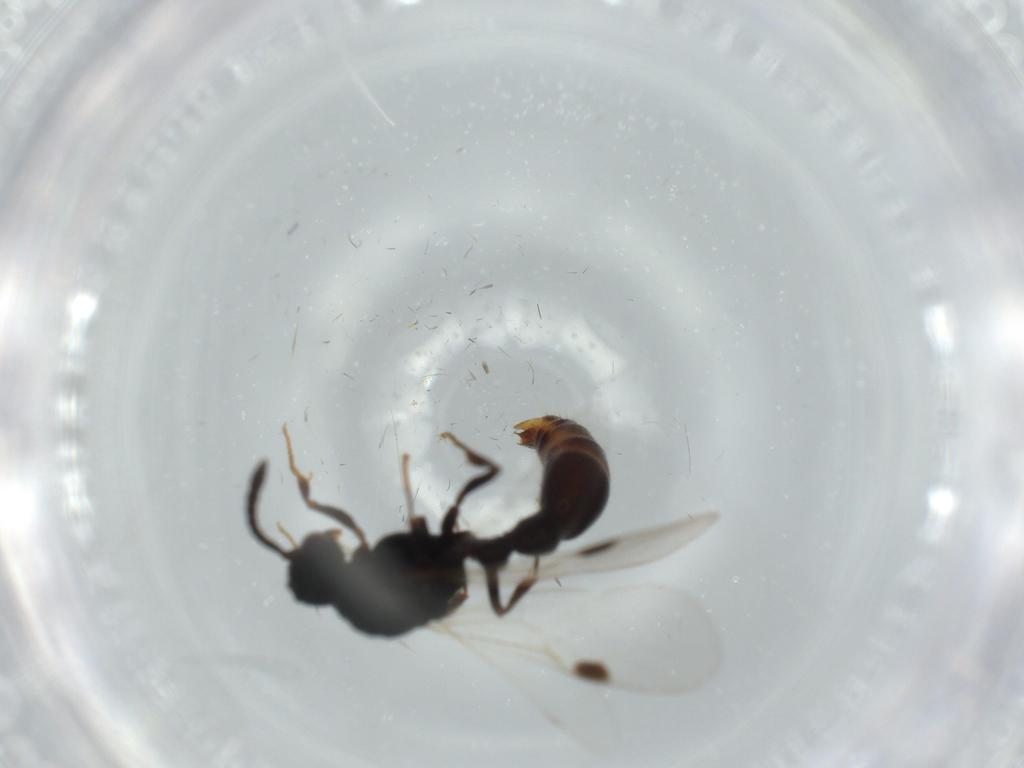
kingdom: Animalia
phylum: Arthropoda
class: Insecta
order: Hymenoptera
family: Formicidae
